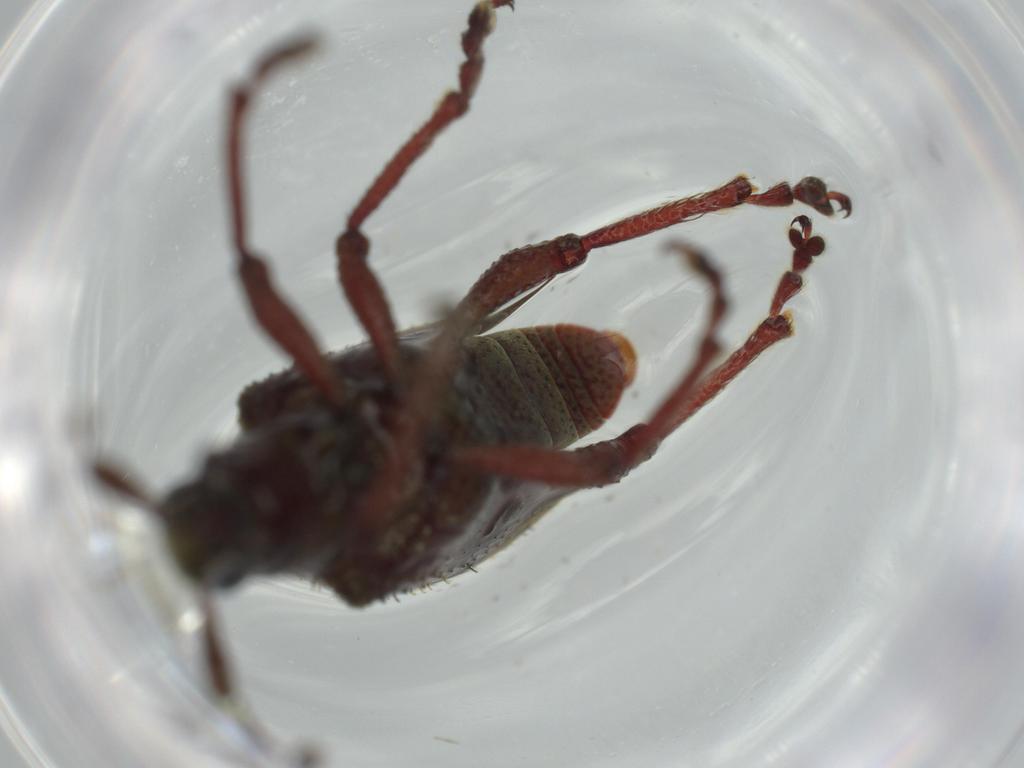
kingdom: Animalia
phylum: Arthropoda
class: Insecta
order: Coleoptera
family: Curculionidae
